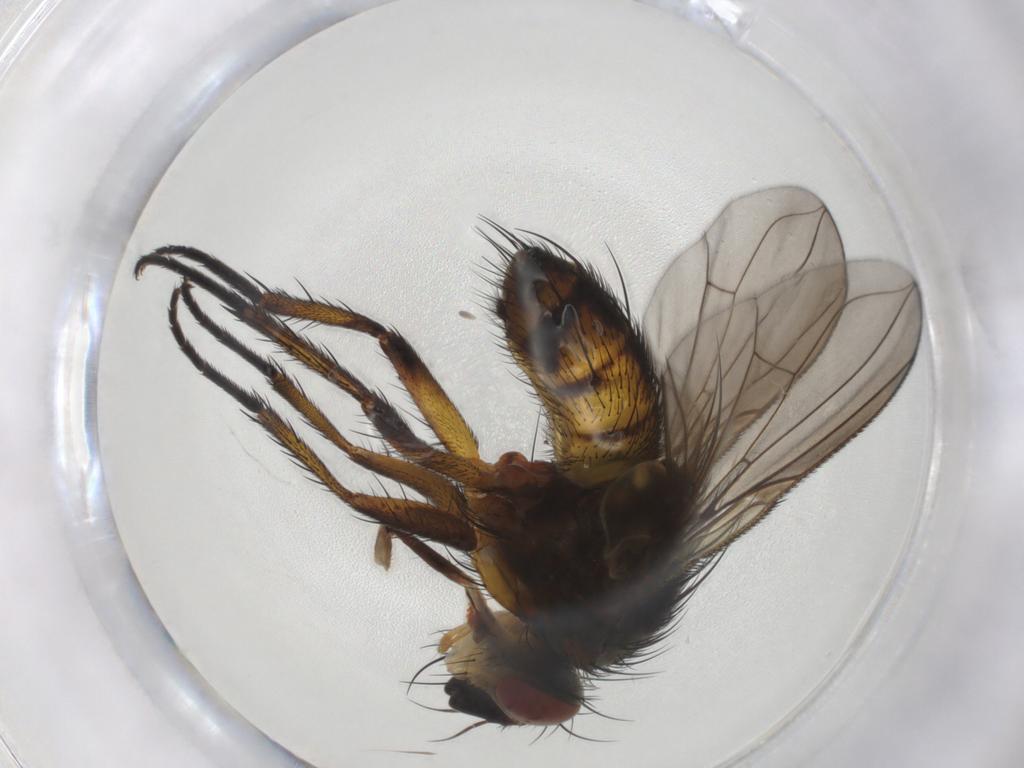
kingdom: Animalia
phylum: Arthropoda
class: Insecta
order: Diptera
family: Tachinidae
